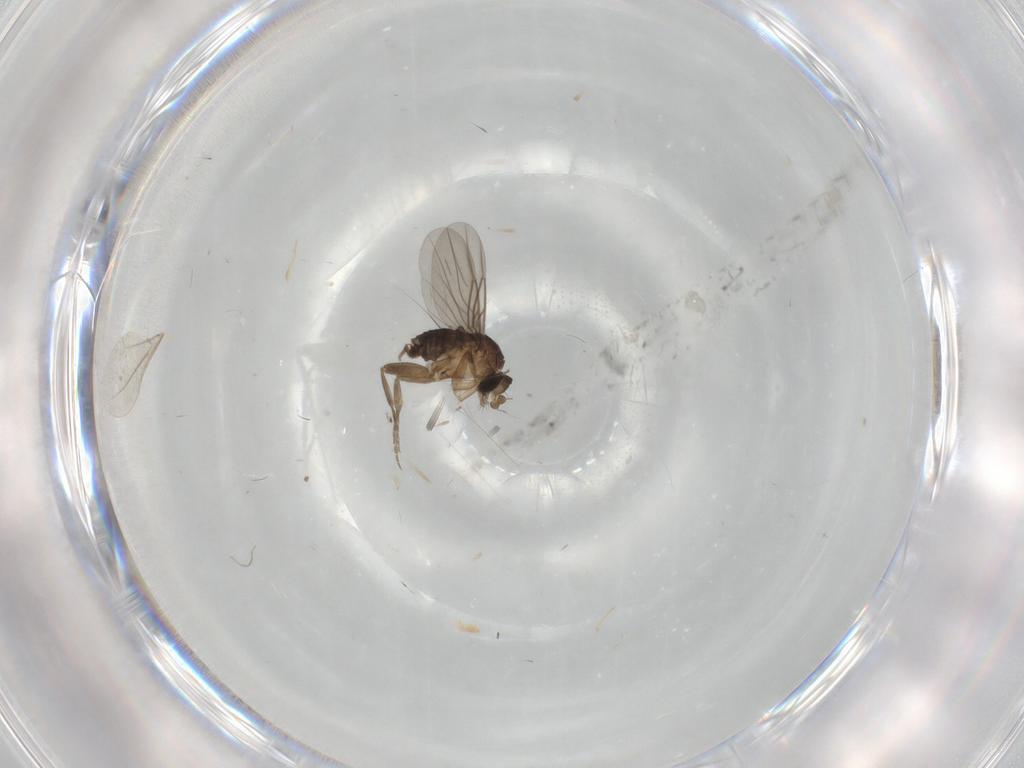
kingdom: Animalia
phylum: Arthropoda
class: Insecta
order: Diptera
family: Cecidomyiidae
